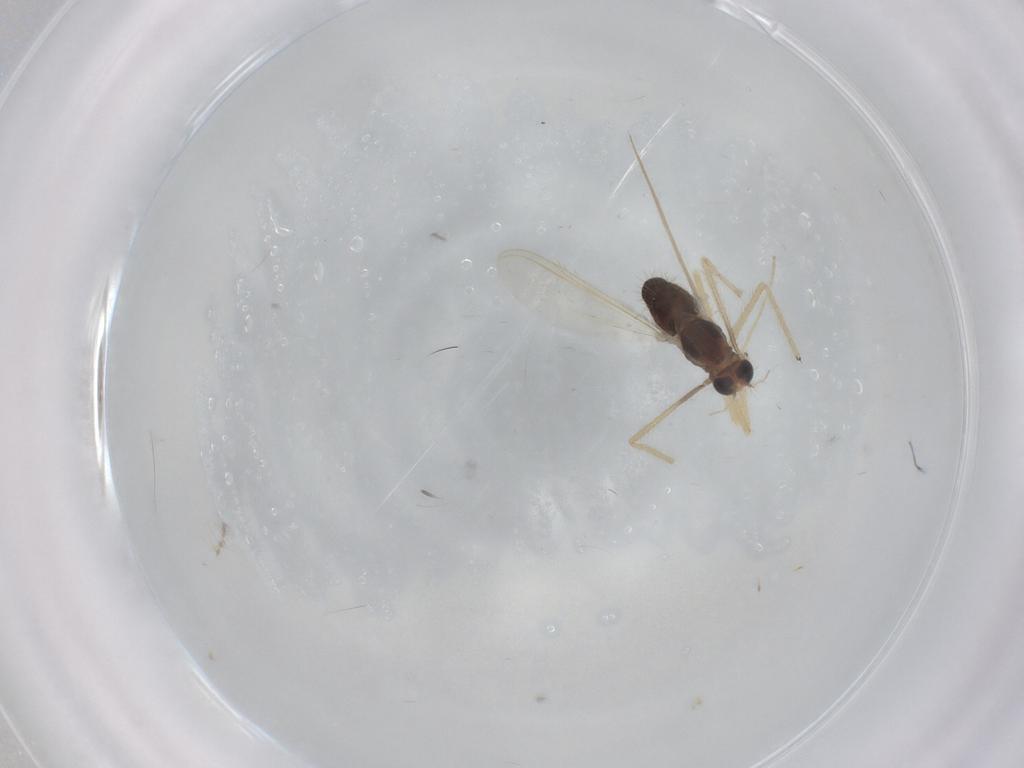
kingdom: Animalia
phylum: Arthropoda
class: Insecta
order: Diptera
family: Chironomidae
